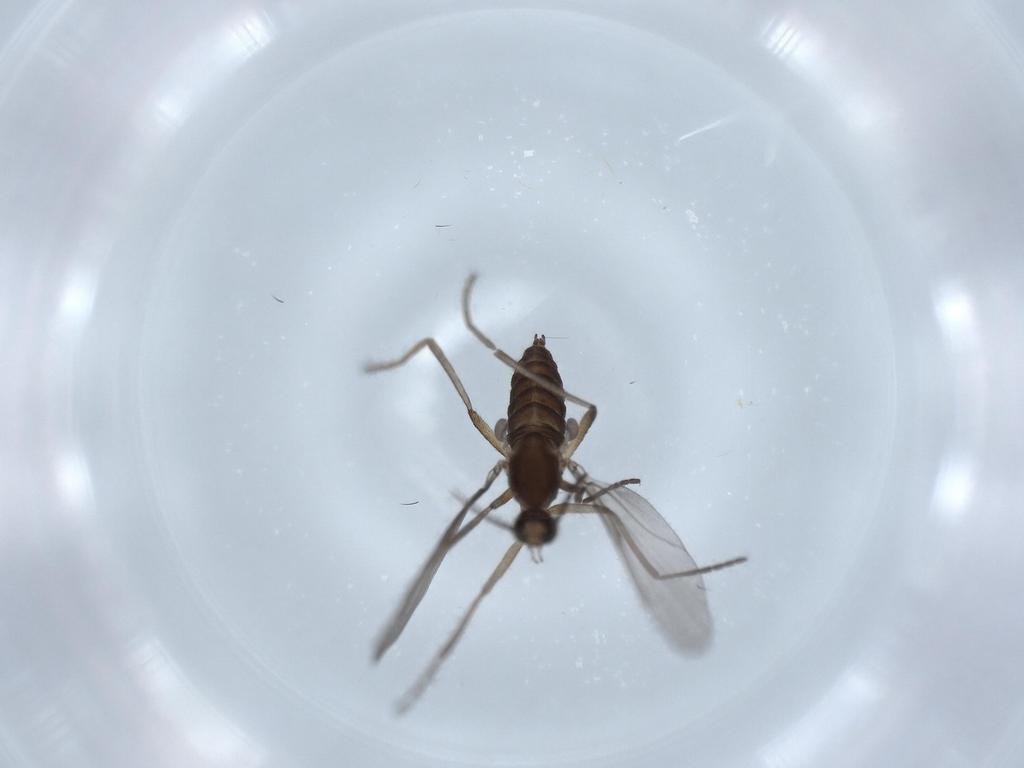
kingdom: Animalia
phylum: Arthropoda
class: Insecta
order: Diptera
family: Cecidomyiidae
